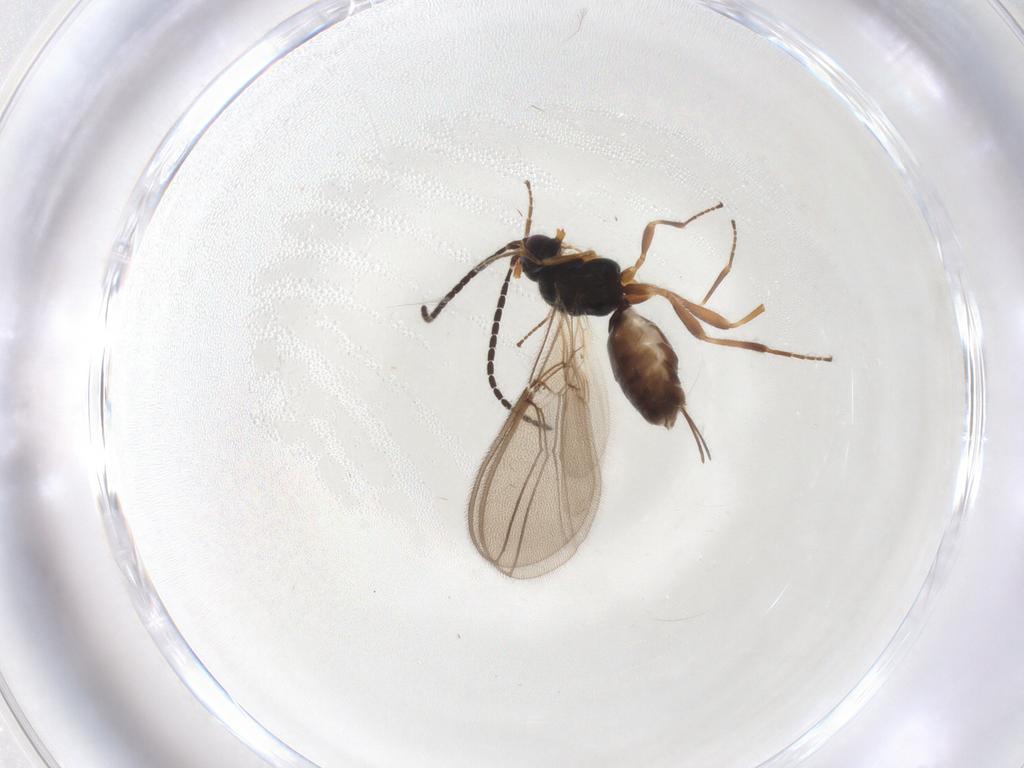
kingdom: Animalia
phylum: Arthropoda
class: Insecta
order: Hymenoptera
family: Braconidae
